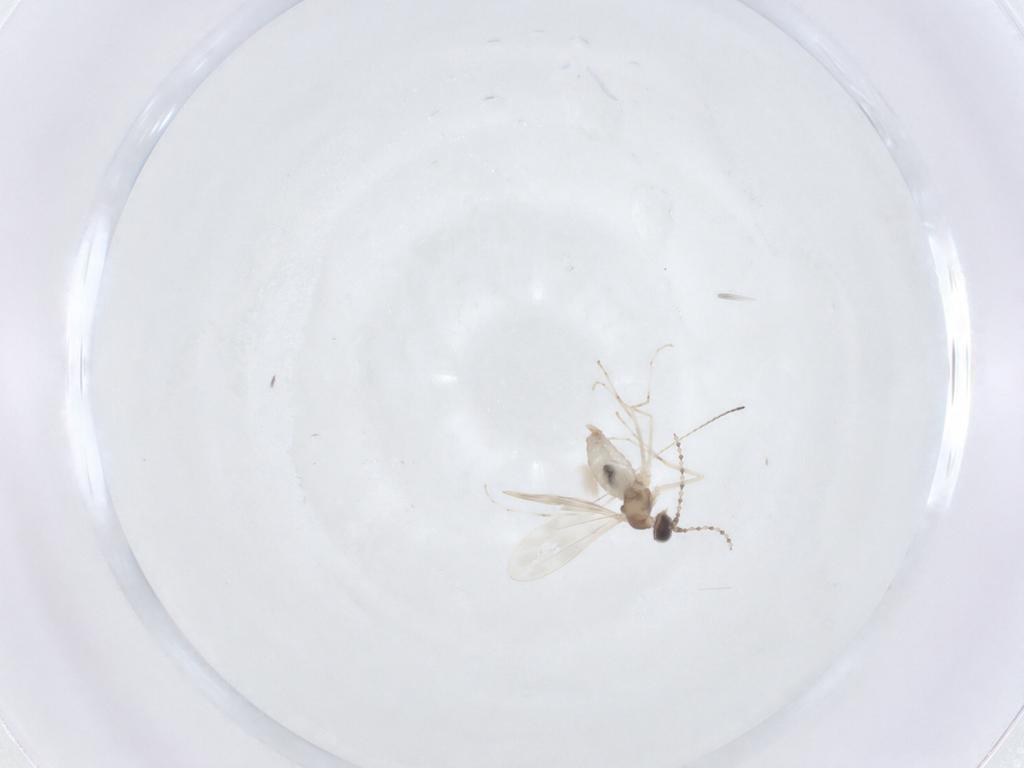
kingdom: Animalia
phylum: Arthropoda
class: Insecta
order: Diptera
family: Cecidomyiidae
